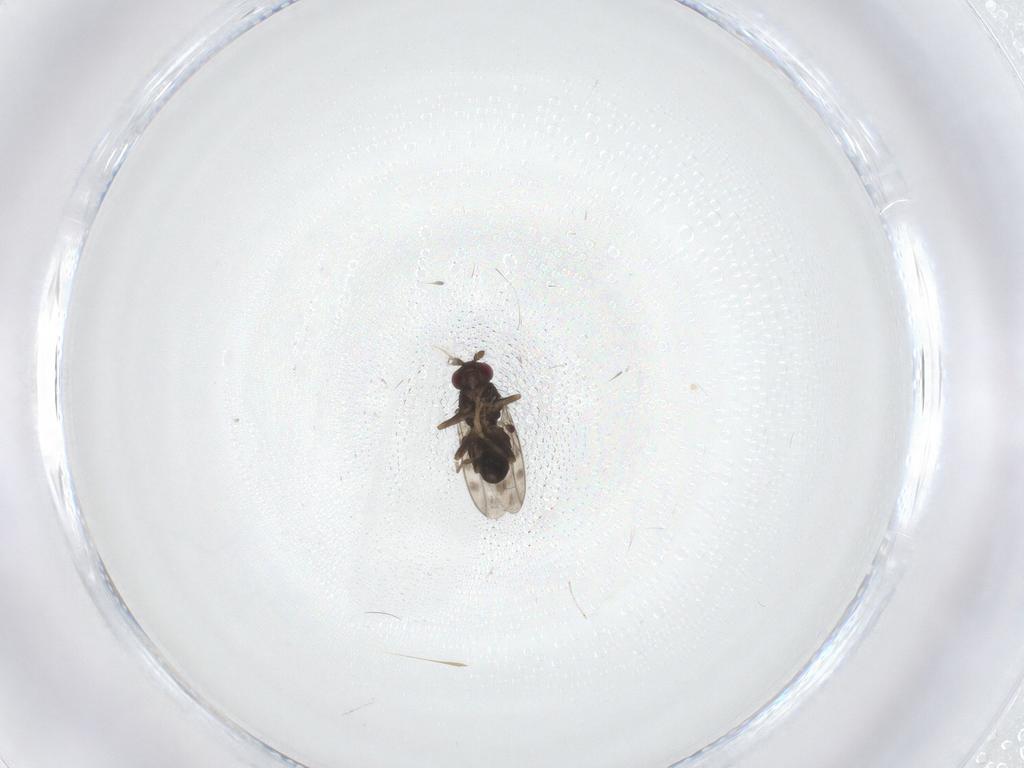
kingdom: Animalia
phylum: Arthropoda
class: Insecta
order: Diptera
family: Sphaeroceridae
